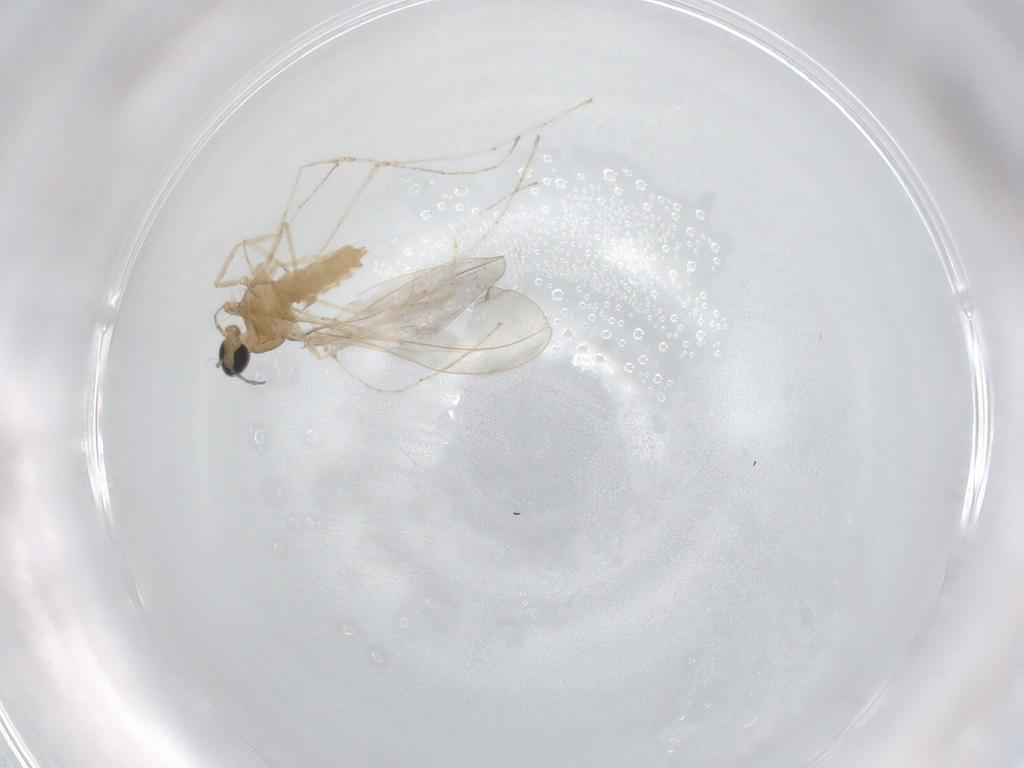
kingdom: Animalia
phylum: Arthropoda
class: Insecta
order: Diptera
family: Cecidomyiidae
